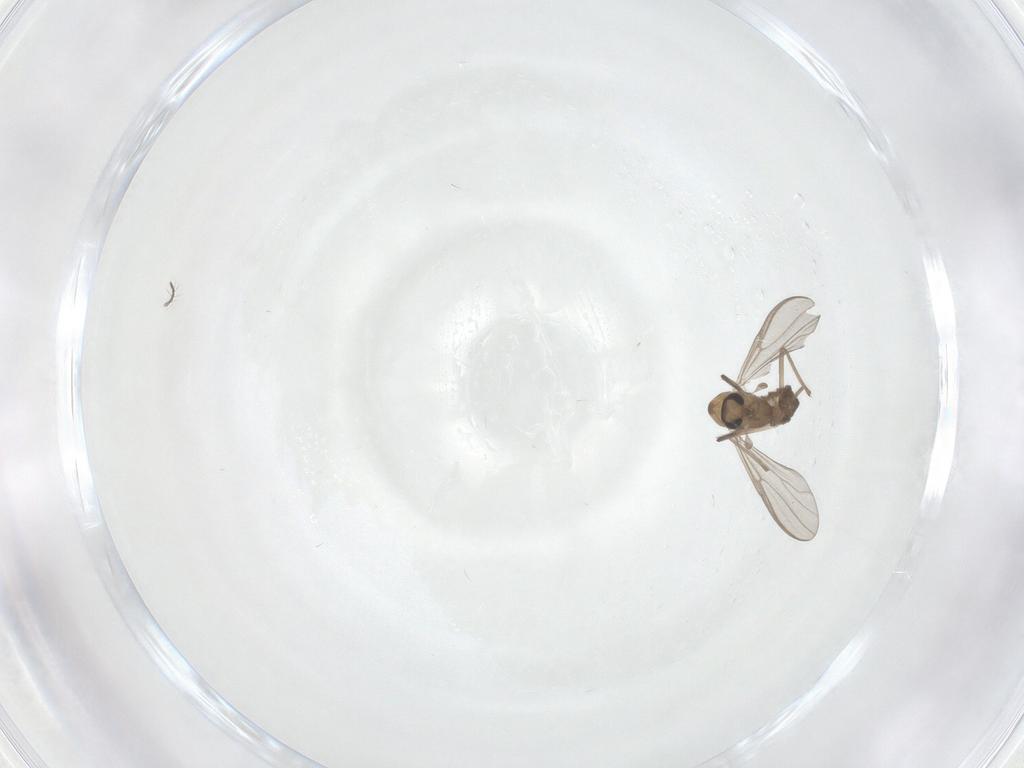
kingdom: Animalia
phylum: Arthropoda
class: Insecta
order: Diptera
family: Chironomidae
